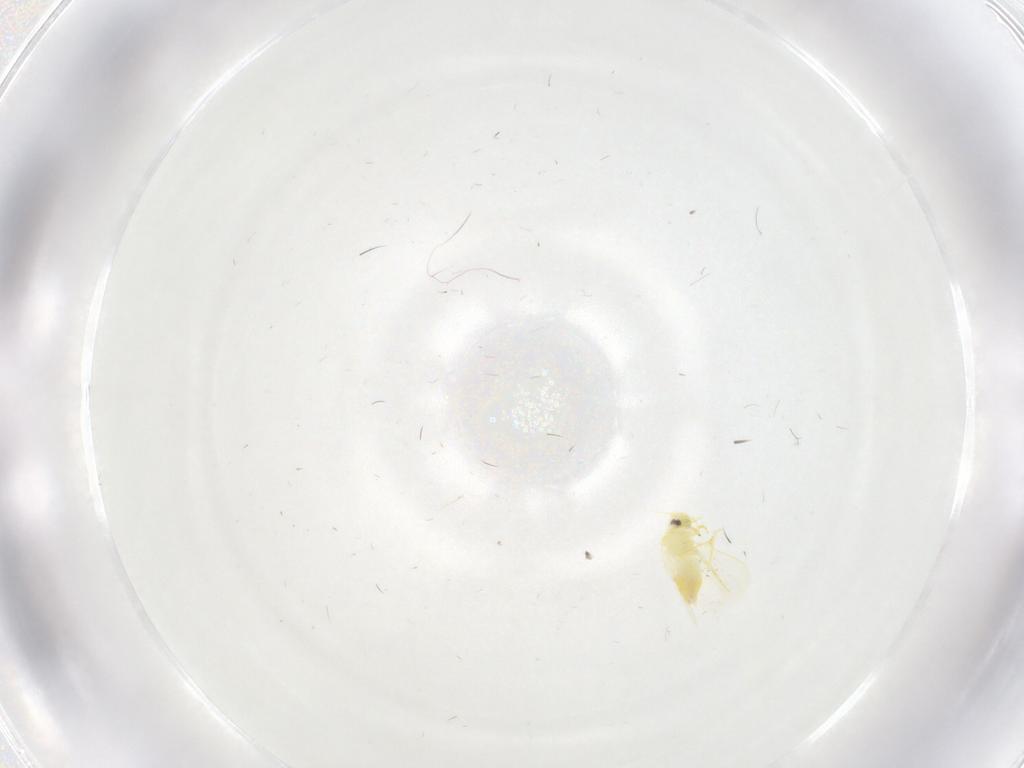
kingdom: Animalia
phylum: Arthropoda
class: Insecta
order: Hemiptera
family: Aleyrodidae
